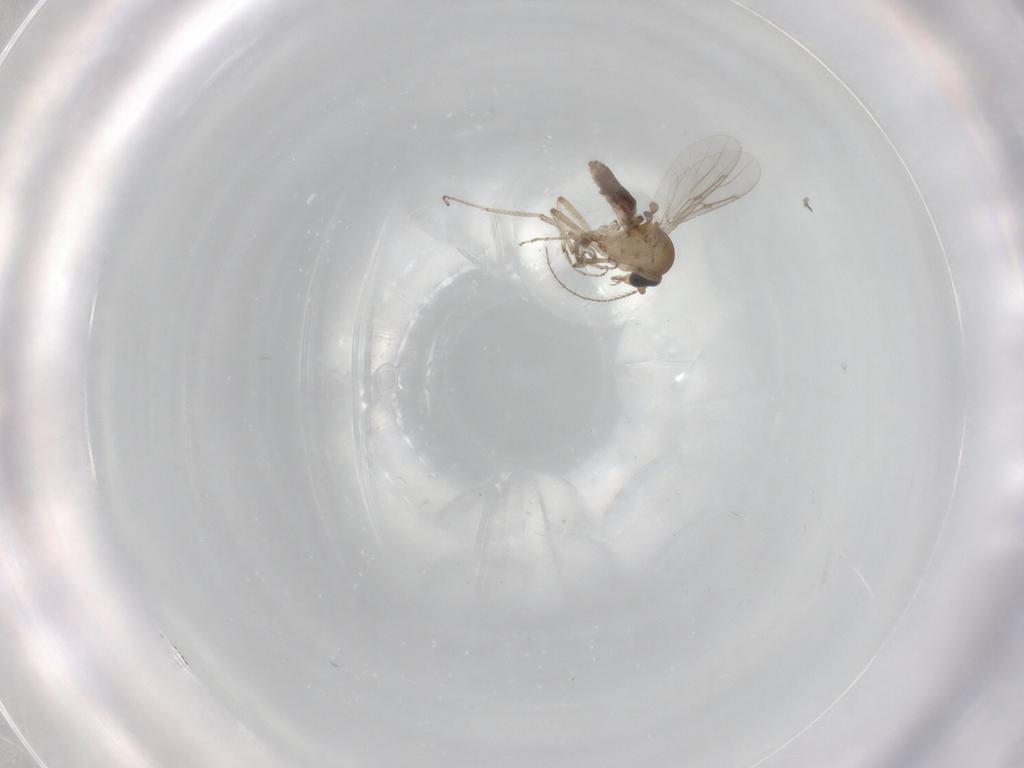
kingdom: Animalia
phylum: Arthropoda
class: Insecta
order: Diptera
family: Ceratopogonidae
